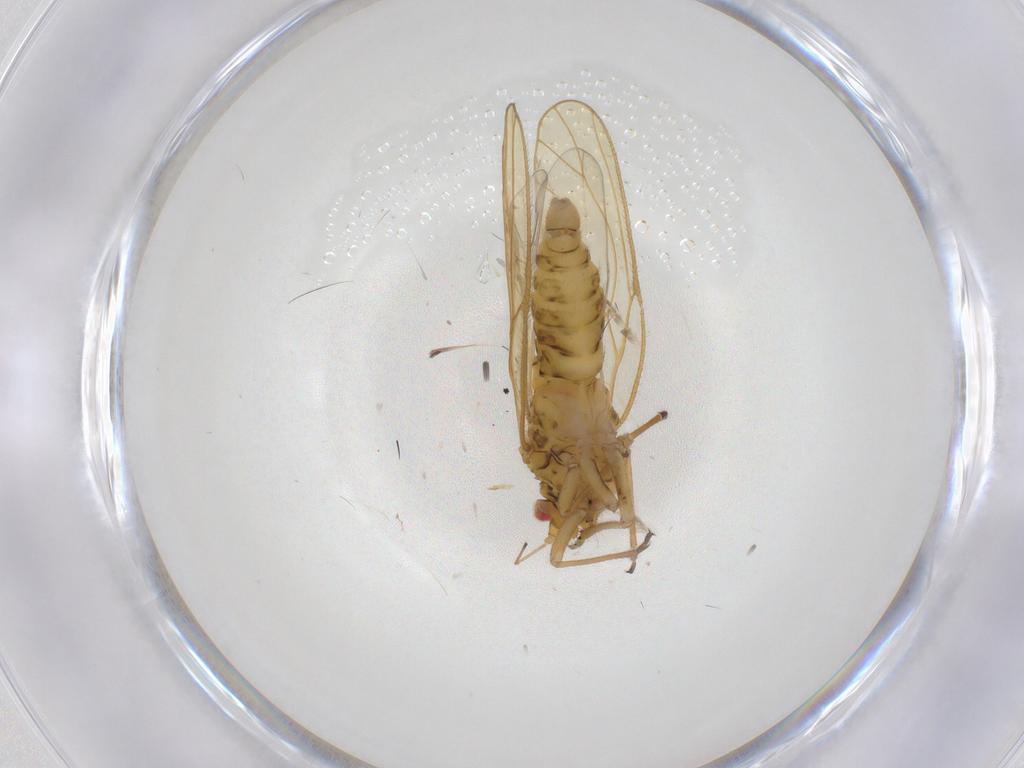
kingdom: Animalia
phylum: Arthropoda
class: Insecta
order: Hemiptera
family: Psyllidae
